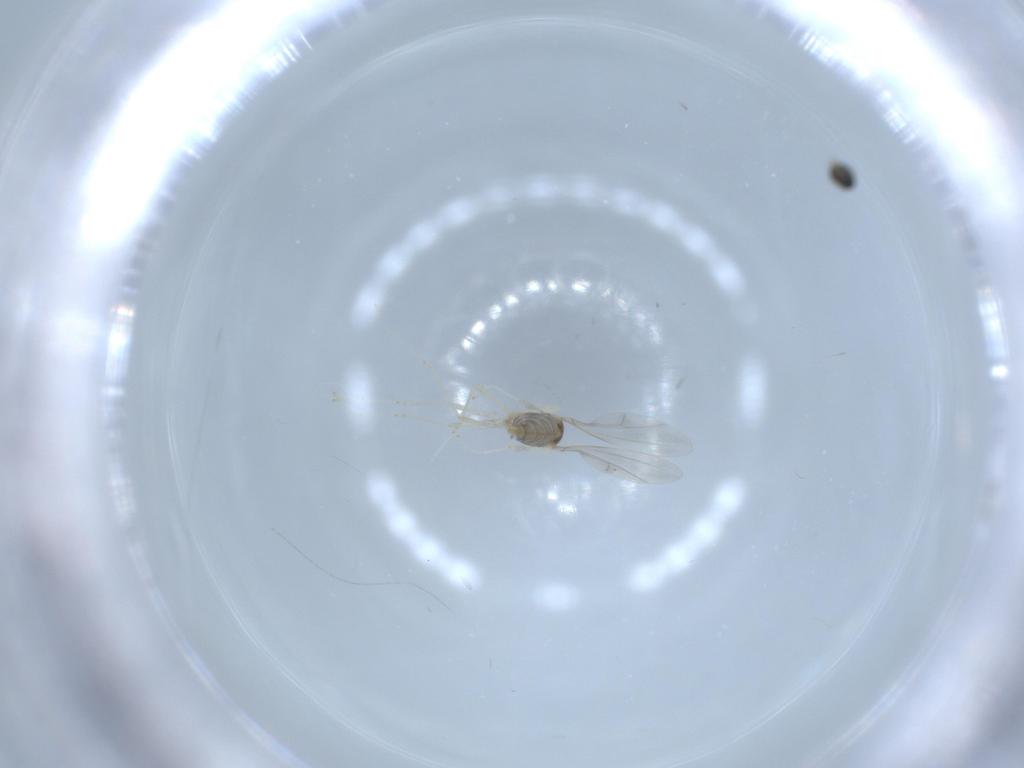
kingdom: Animalia
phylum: Arthropoda
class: Insecta
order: Diptera
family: Cecidomyiidae
